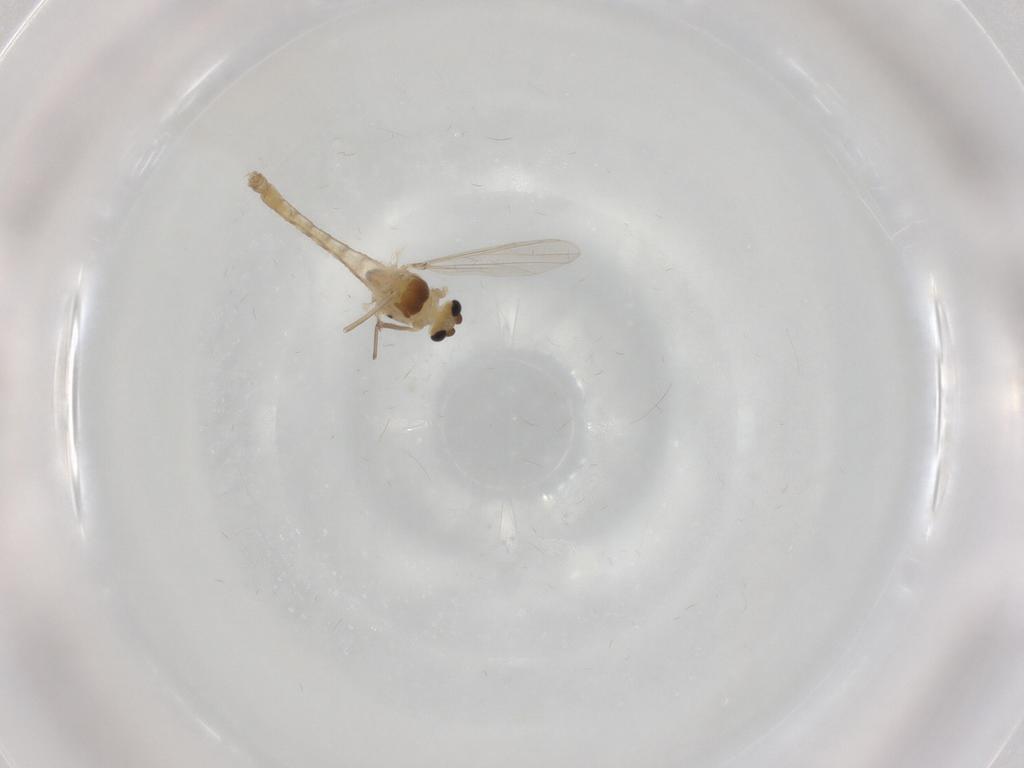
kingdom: Animalia
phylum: Arthropoda
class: Insecta
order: Diptera
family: Chironomidae
